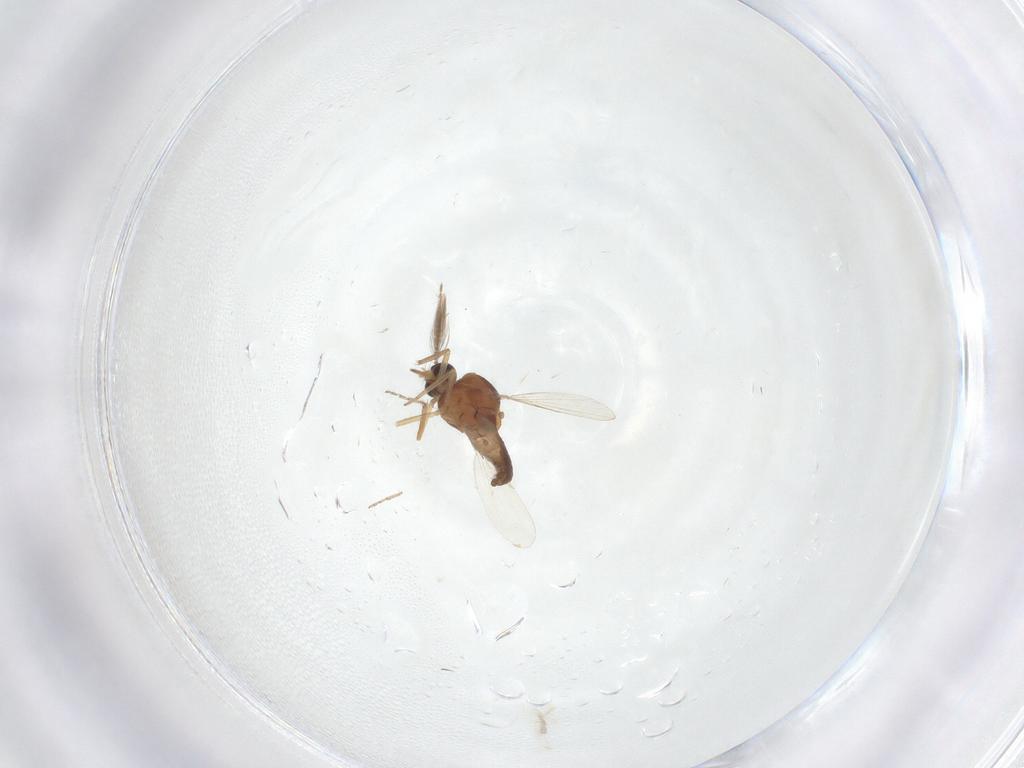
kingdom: Animalia
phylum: Arthropoda
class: Insecta
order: Diptera
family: Ceratopogonidae
